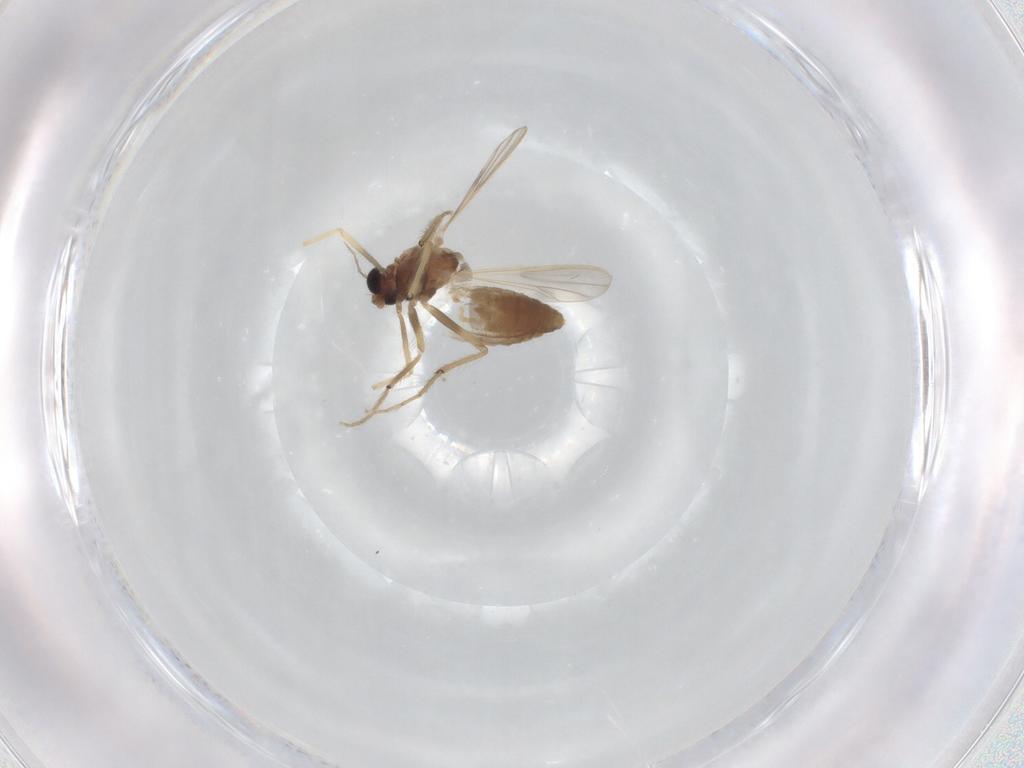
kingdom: Animalia
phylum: Arthropoda
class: Insecta
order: Diptera
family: Chironomidae
